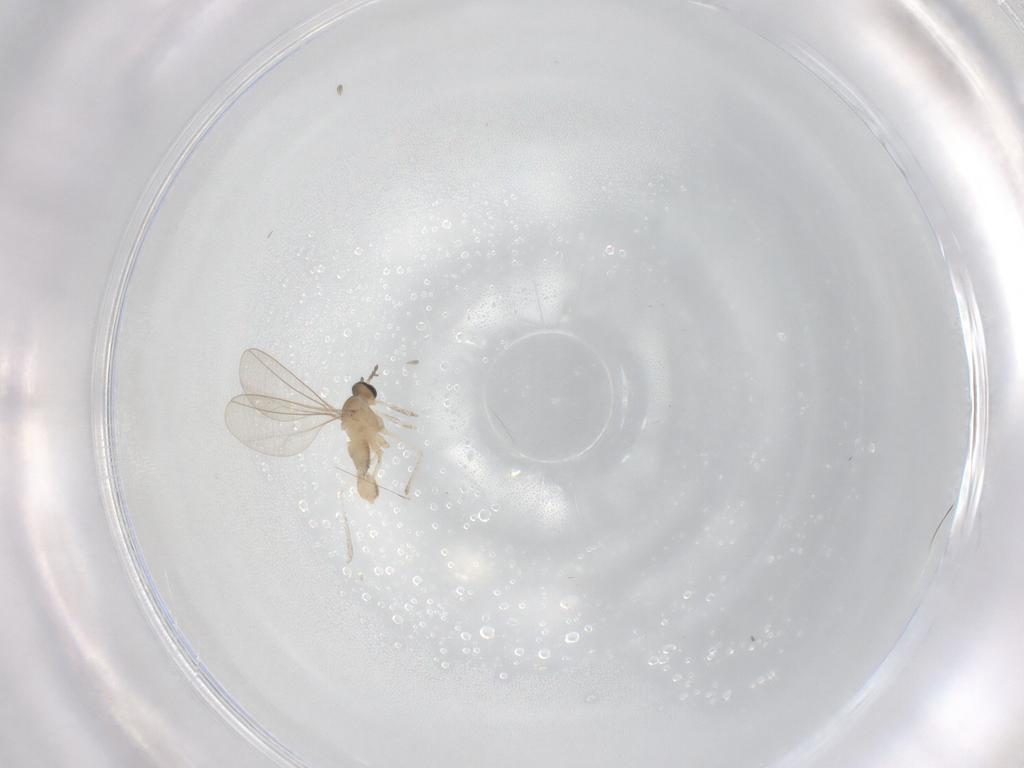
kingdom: Animalia
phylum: Arthropoda
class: Insecta
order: Diptera
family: Cecidomyiidae
